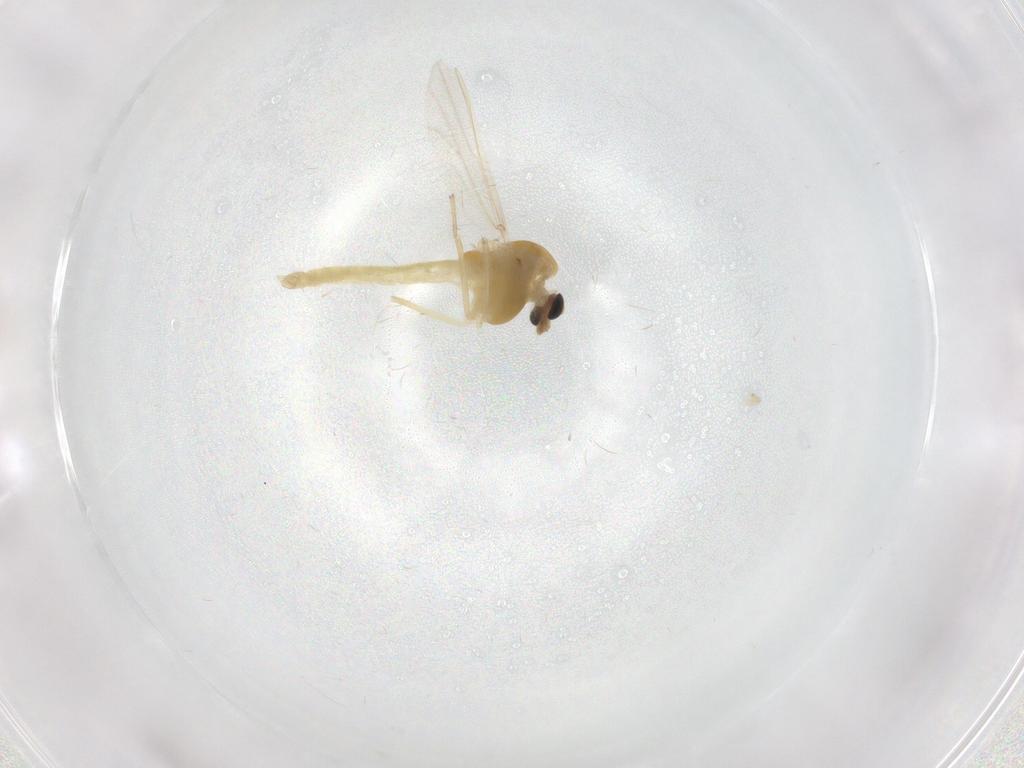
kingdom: Animalia
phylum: Arthropoda
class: Insecta
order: Diptera
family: Chironomidae
